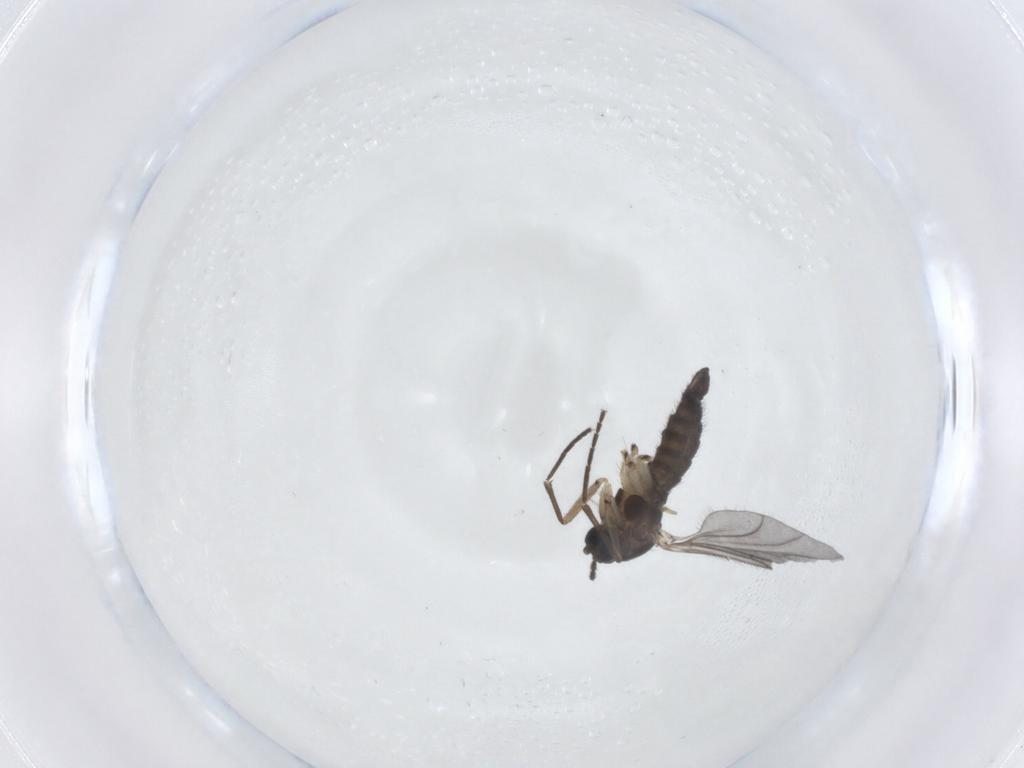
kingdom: Animalia
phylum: Arthropoda
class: Insecta
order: Diptera
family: Sciaridae
